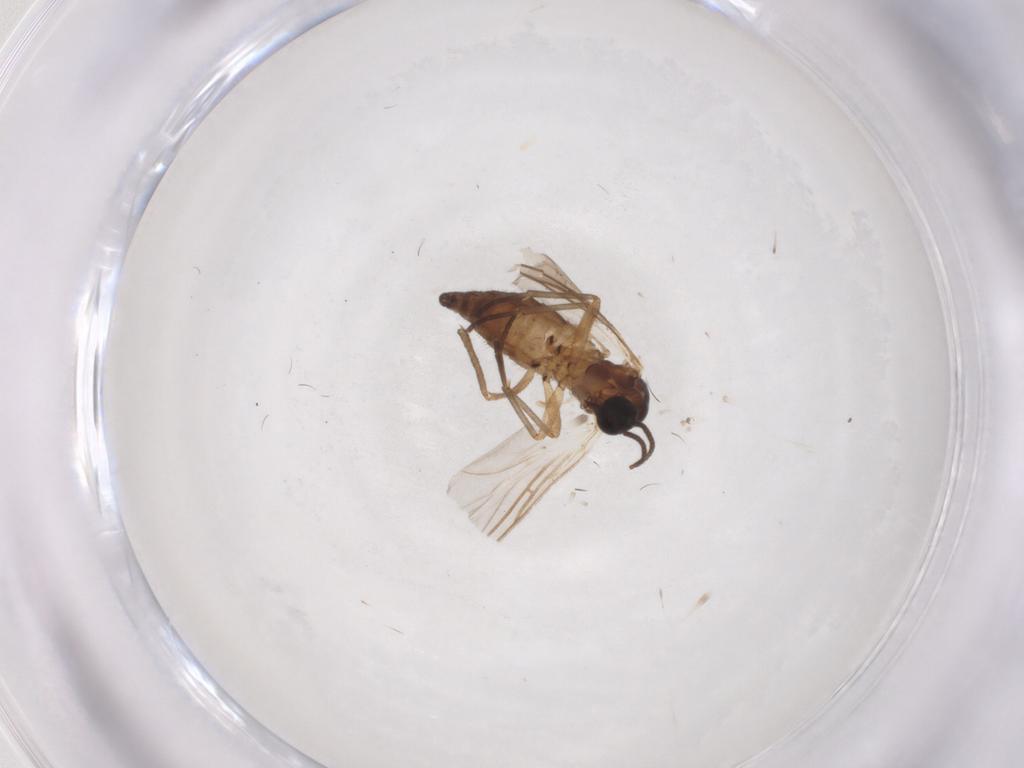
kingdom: Animalia
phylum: Arthropoda
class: Insecta
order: Diptera
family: Sciaridae
